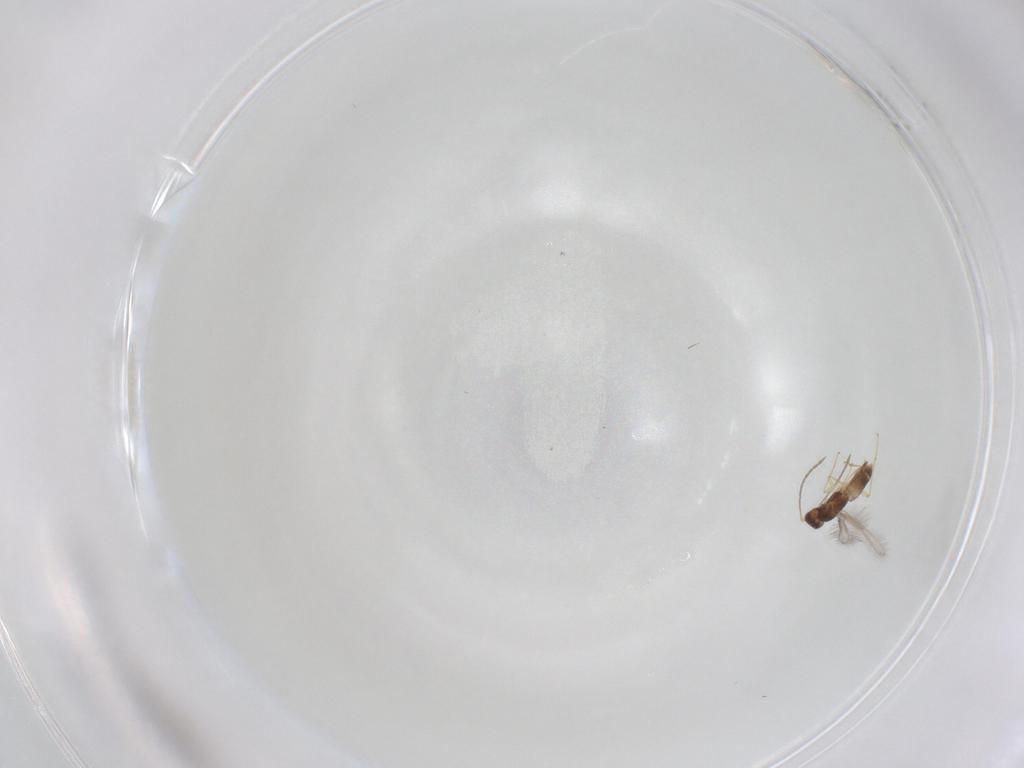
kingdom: Animalia
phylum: Arthropoda
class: Insecta
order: Hymenoptera
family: Mymaridae
